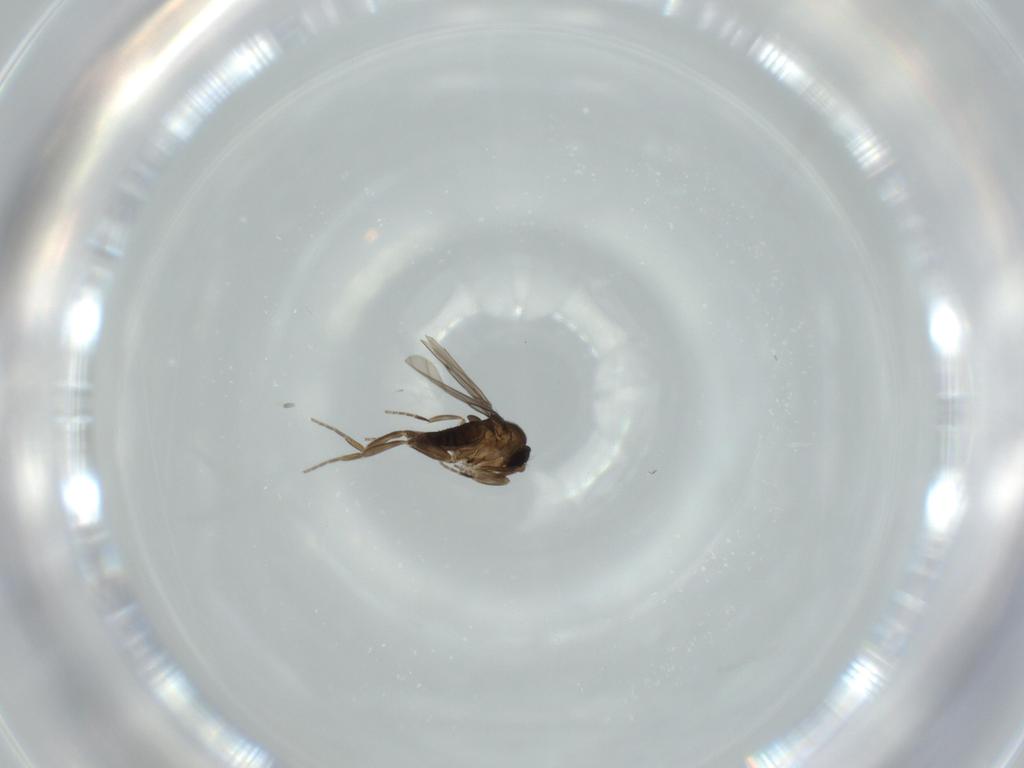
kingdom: Animalia
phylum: Arthropoda
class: Insecta
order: Diptera
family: Phoridae
